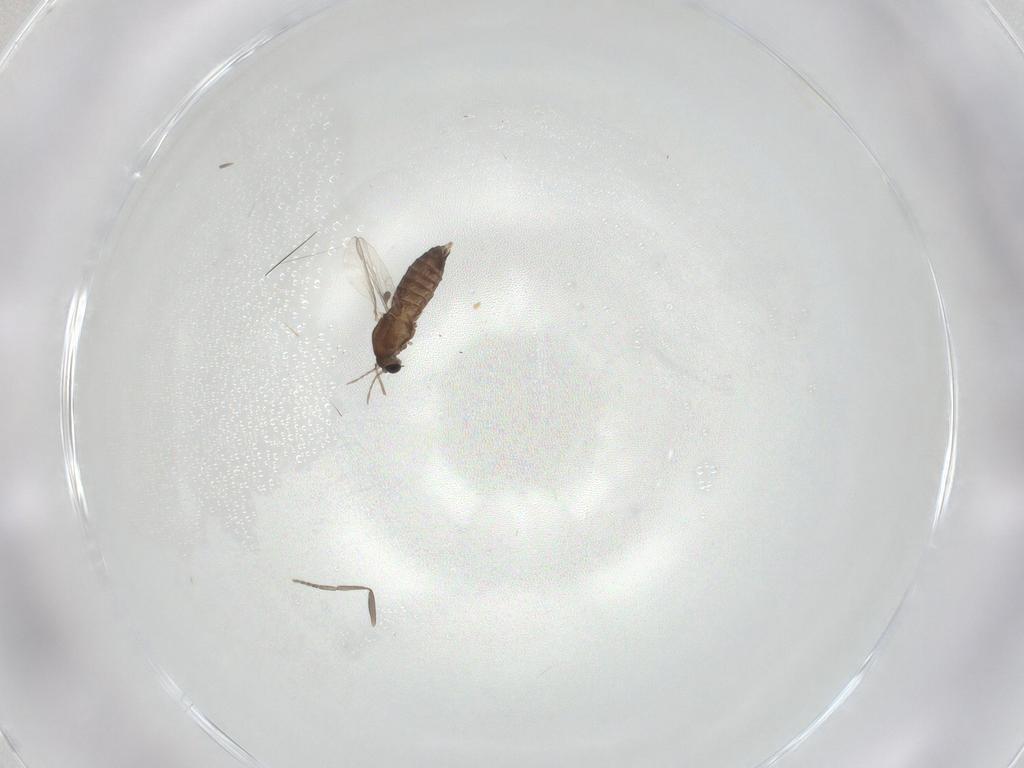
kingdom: Animalia
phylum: Arthropoda
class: Insecta
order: Diptera
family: Chironomidae
